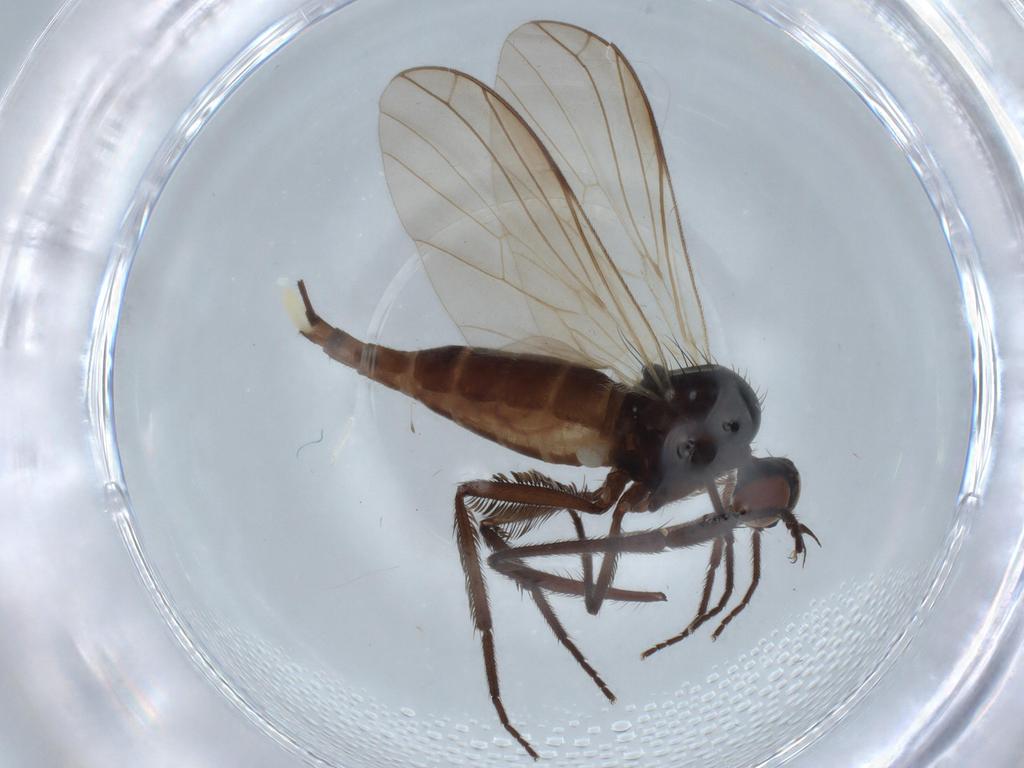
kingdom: Animalia
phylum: Arthropoda
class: Insecta
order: Diptera
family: Empididae
